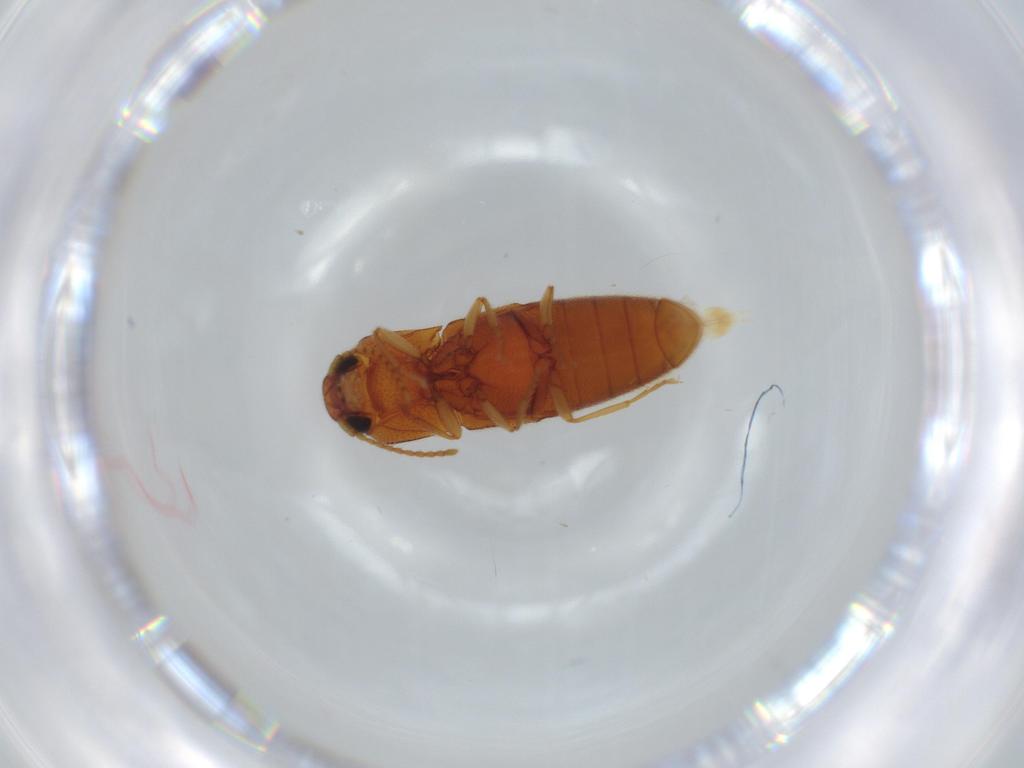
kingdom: Animalia
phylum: Arthropoda
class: Insecta
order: Coleoptera
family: Elateridae
